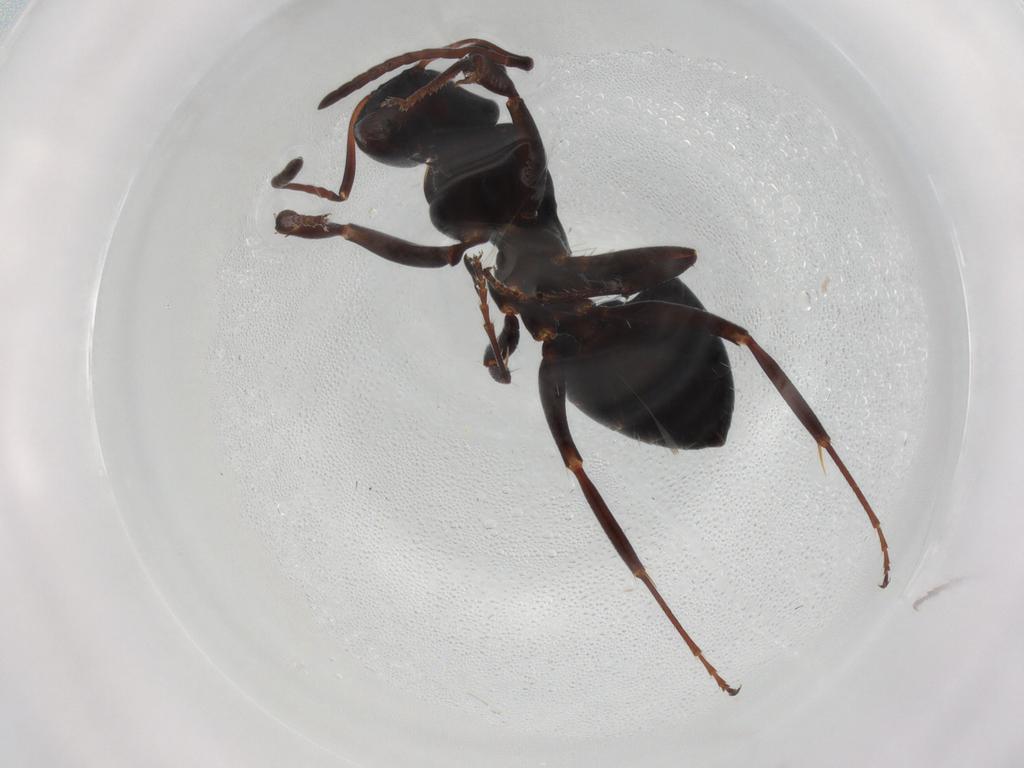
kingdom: Animalia
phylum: Arthropoda
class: Insecta
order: Hymenoptera
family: Formicidae
